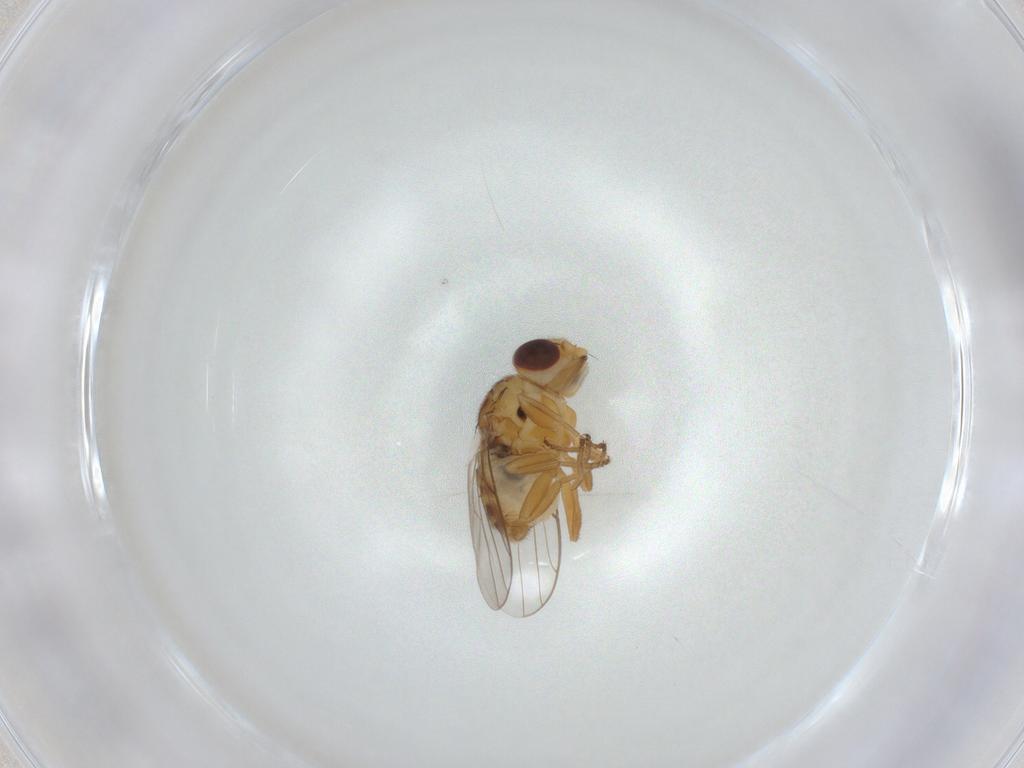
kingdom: Animalia
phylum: Arthropoda
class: Insecta
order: Diptera
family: Chloropidae
